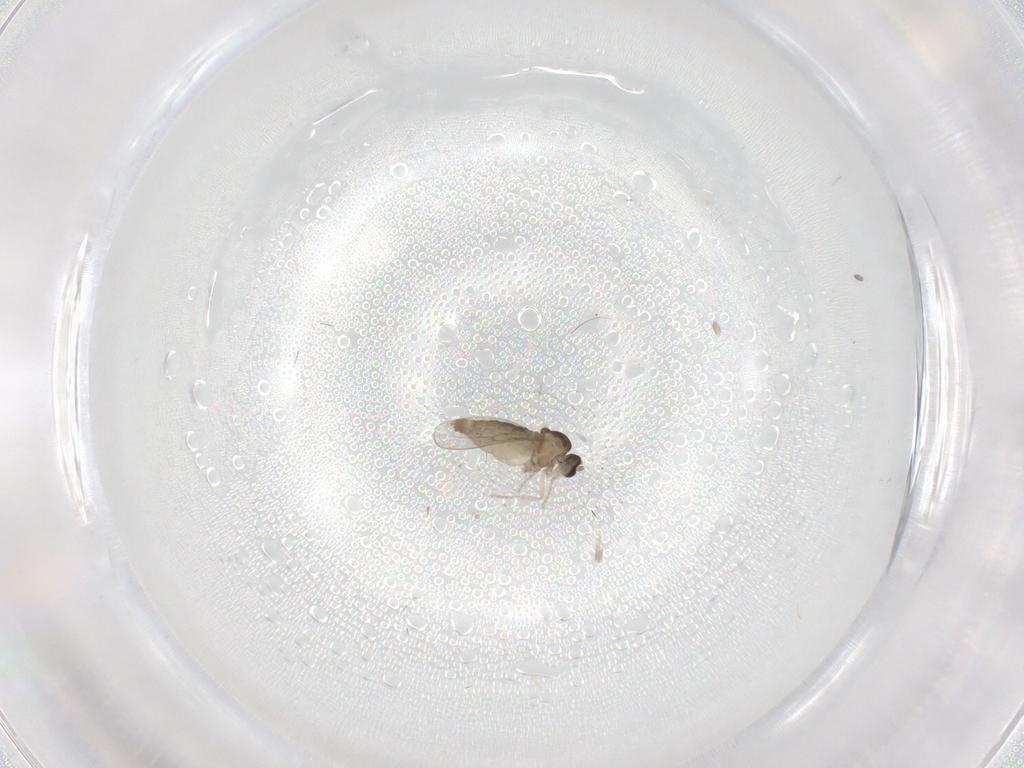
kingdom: Animalia
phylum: Arthropoda
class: Insecta
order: Diptera
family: Cecidomyiidae
